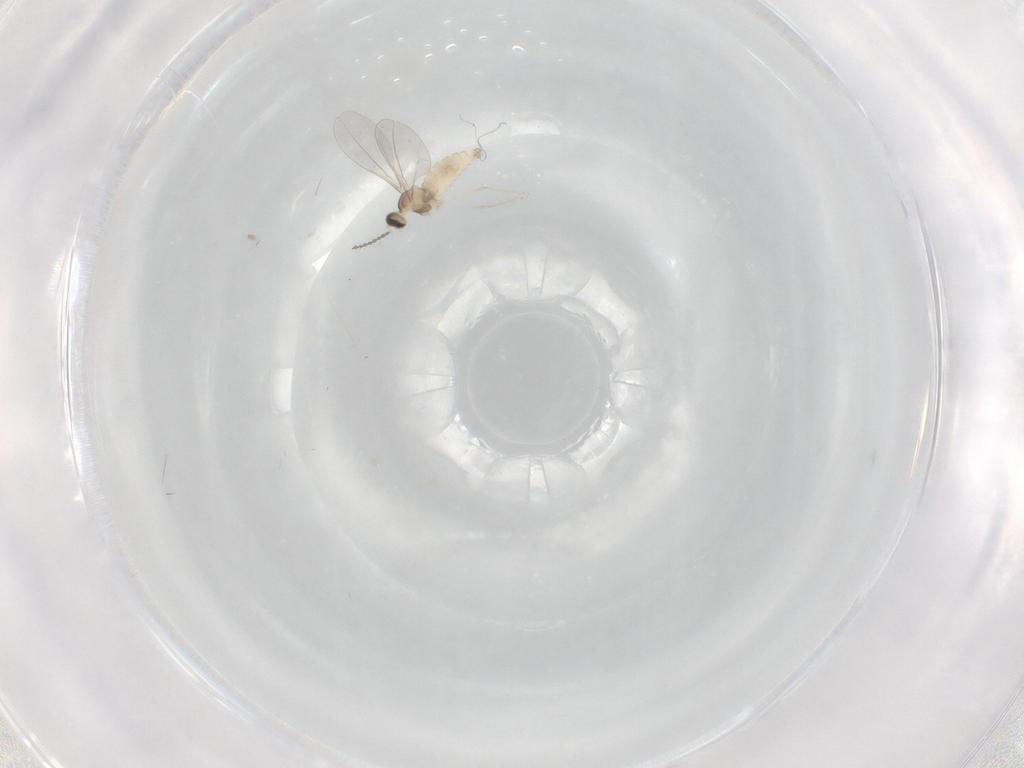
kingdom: Animalia
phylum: Arthropoda
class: Insecta
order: Diptera
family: Cecidomyiidae
